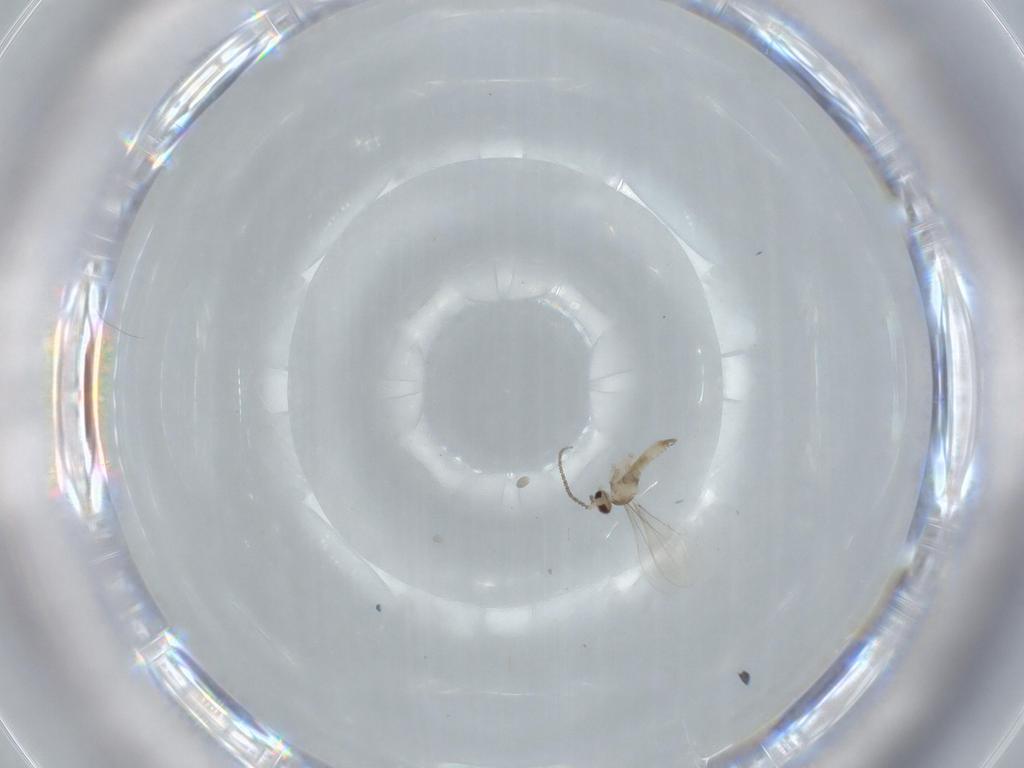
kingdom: Animalia
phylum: Arthropoda
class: Insecta
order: Diptera
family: Cecidomyiidae
